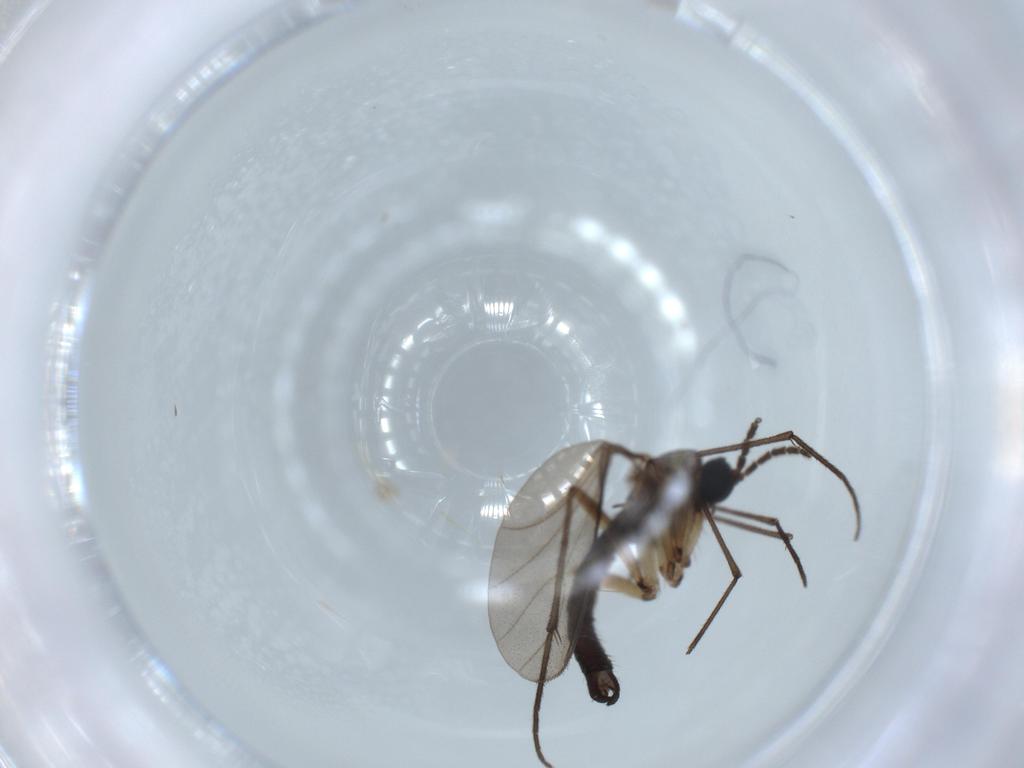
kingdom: Animalia
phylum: Arthropoda
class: Insecta
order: Diptera
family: Sciaridae
